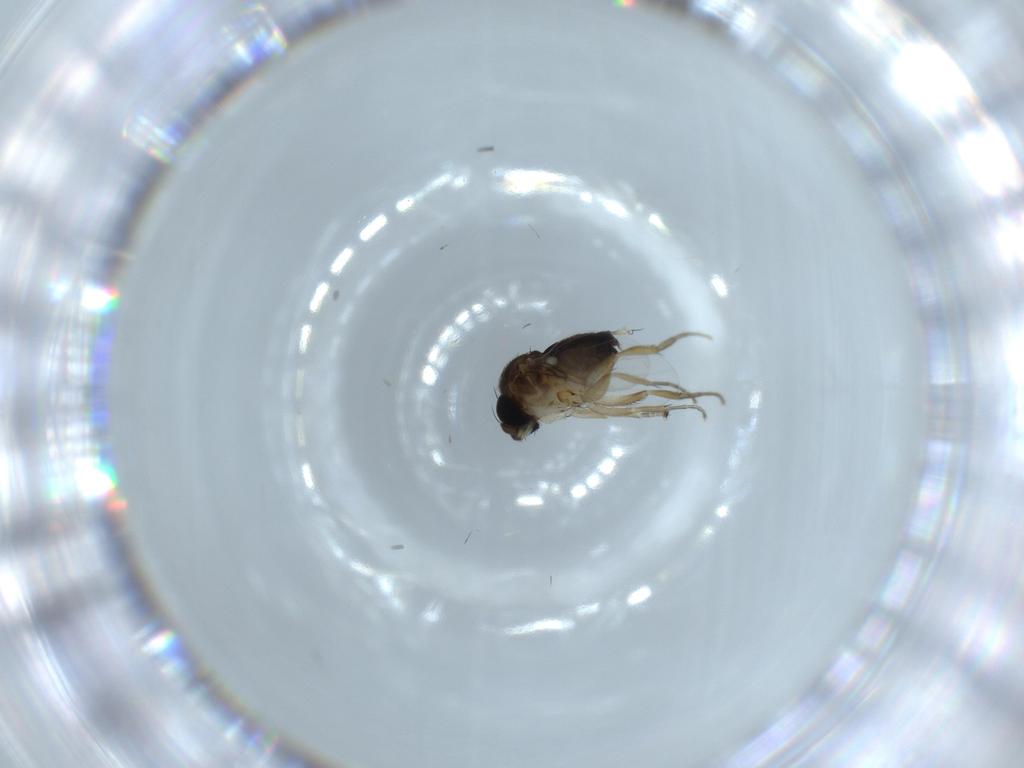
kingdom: Animalia
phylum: Arthropoda
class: Insecta
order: Diptera
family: Phoridae
